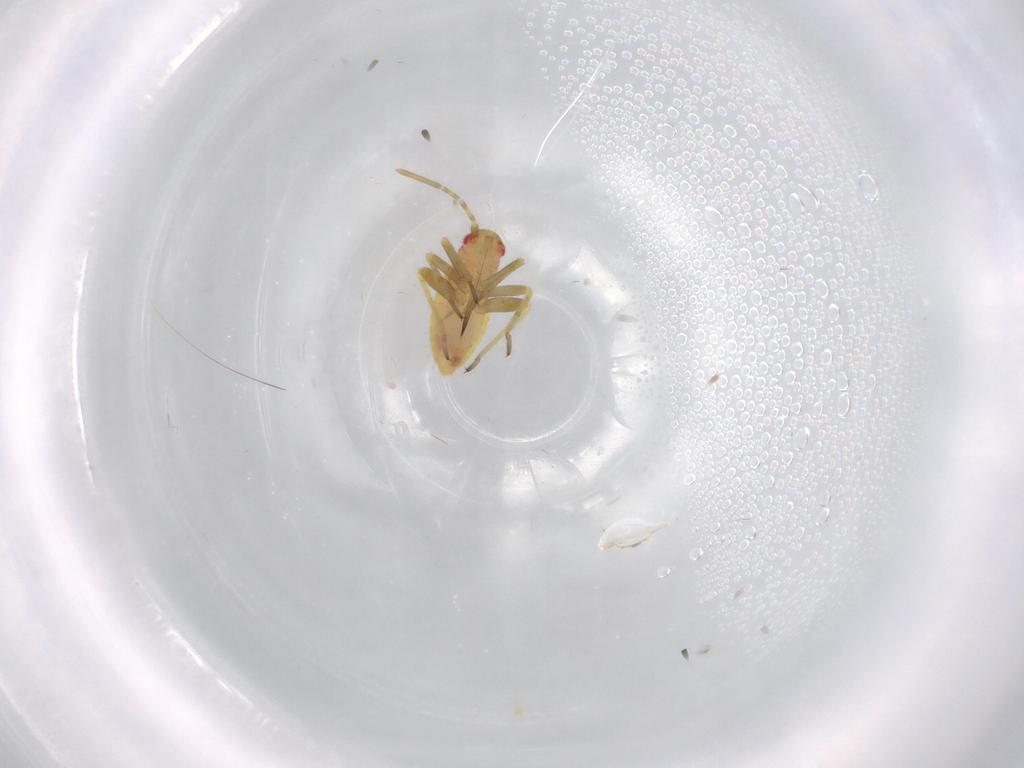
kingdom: Animalia
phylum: Arthropoda
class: Insecta
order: Hemiptera
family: Miridae
